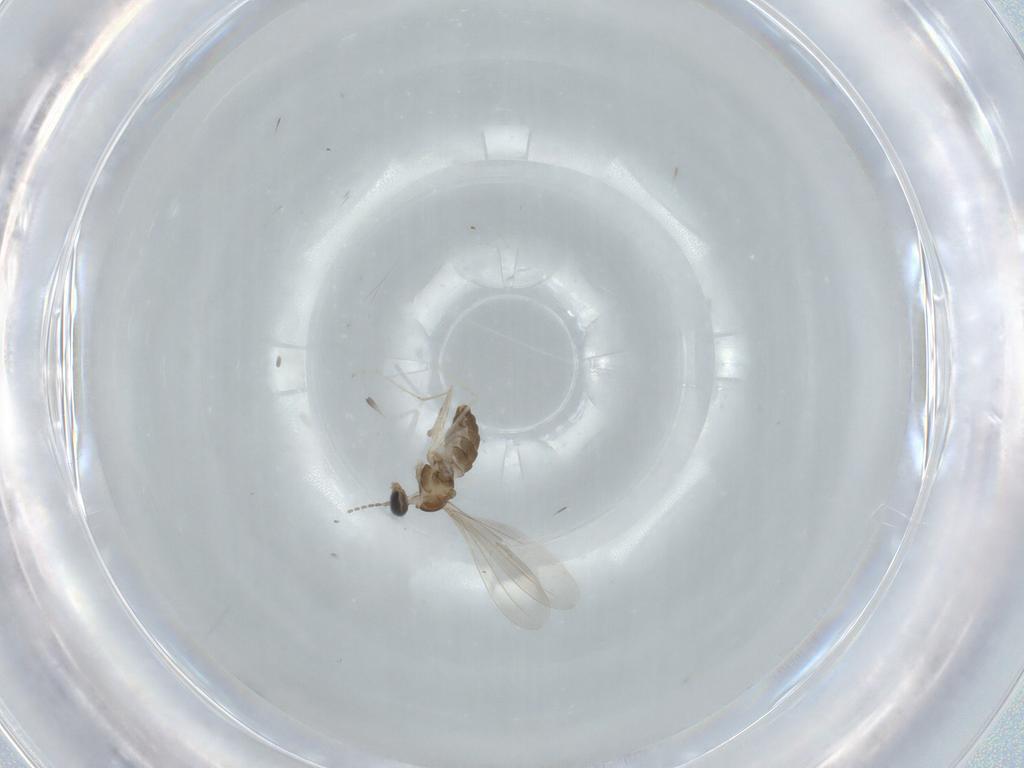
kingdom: Animalia
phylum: Arthropoda
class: Insecta
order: Diptera
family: Cecidomyiidae
